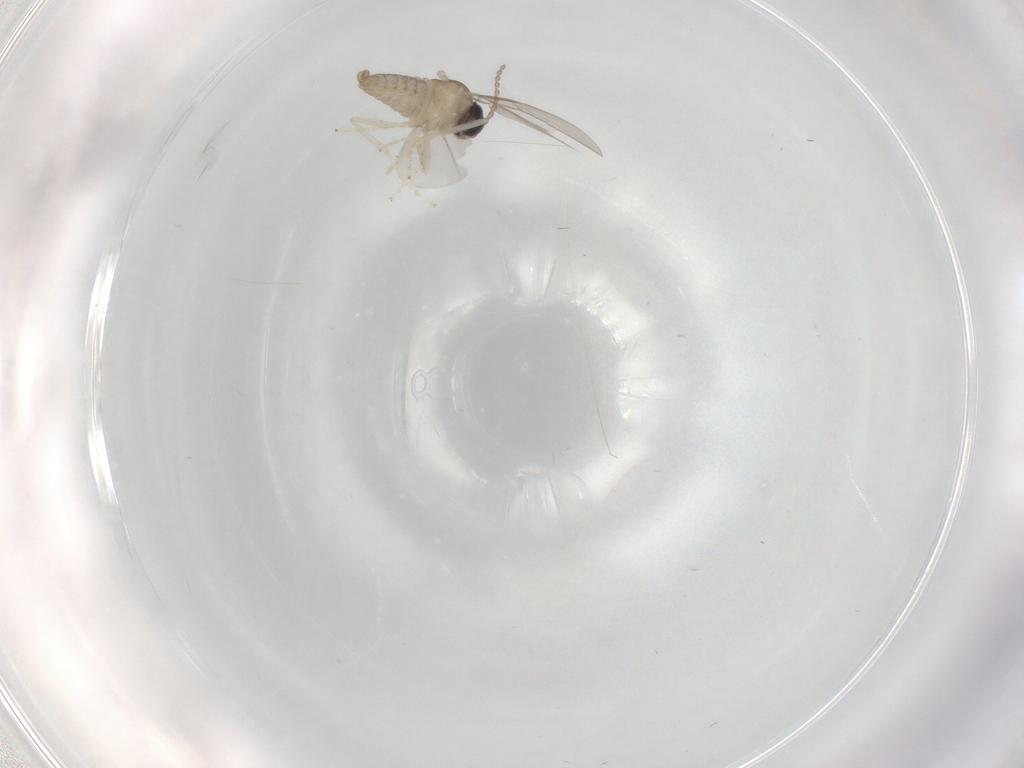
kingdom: Animalia
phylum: Arthropoda
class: Insecta
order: Diptera
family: Cecidomyiidae
